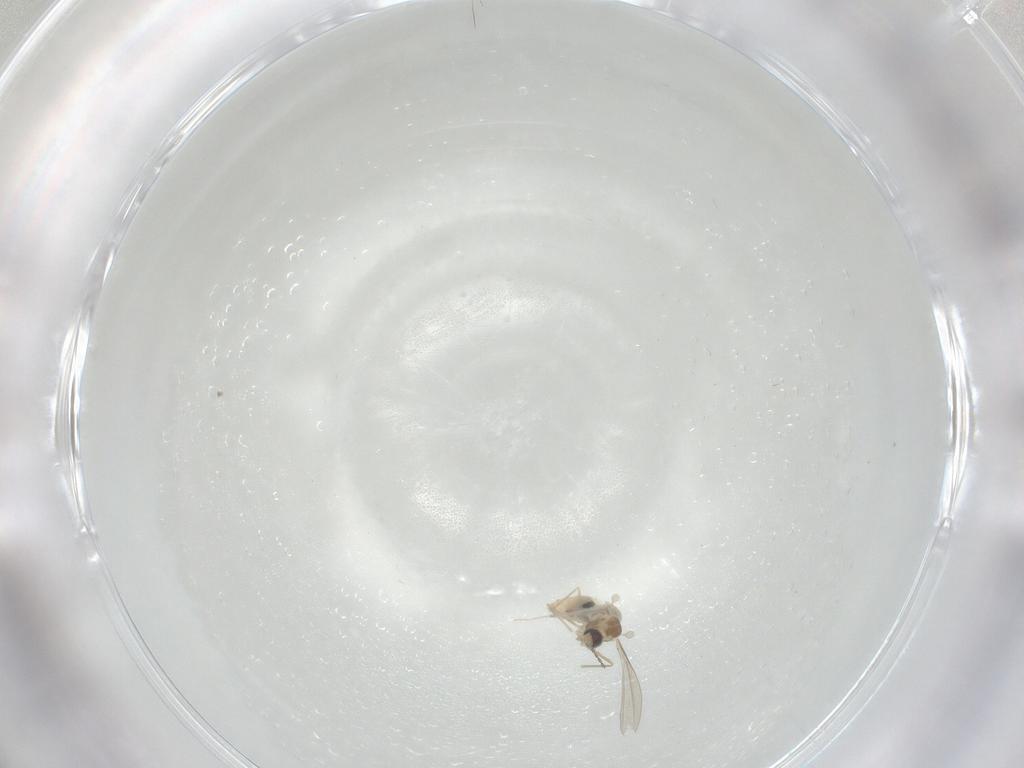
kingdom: Animalia
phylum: Arthropoda
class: Insecta
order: Diptera
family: Cecidomyiidae
